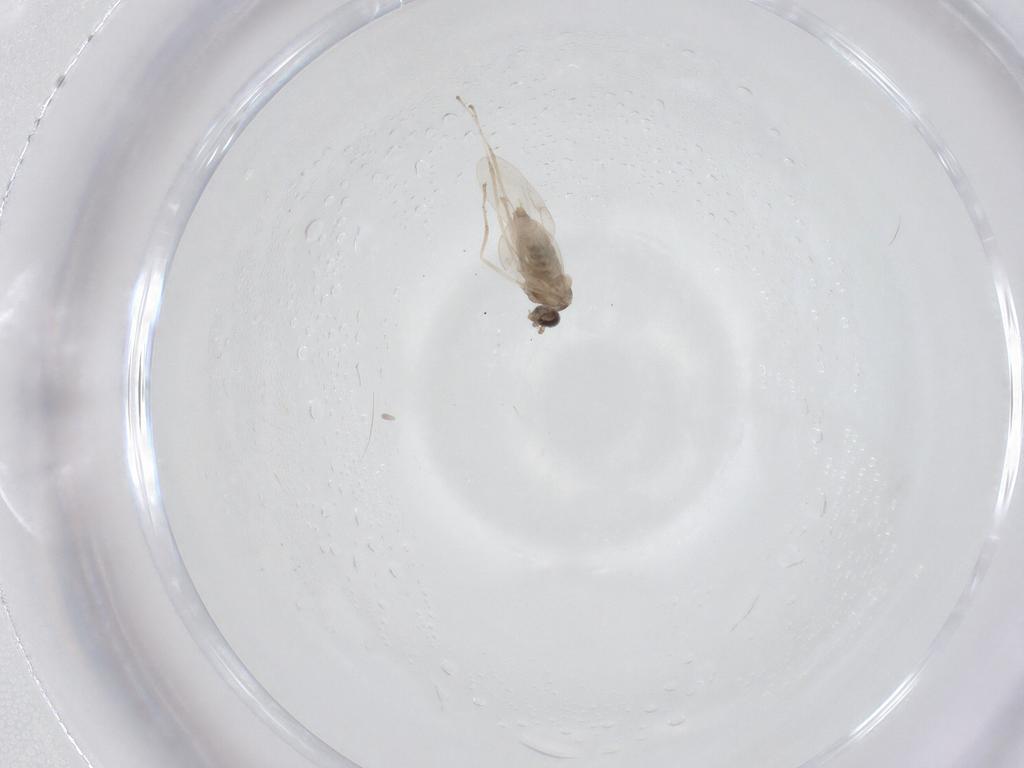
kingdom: Animalia
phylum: Arthropoda
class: Insecta
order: Diptera
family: Cecidomyiidae
